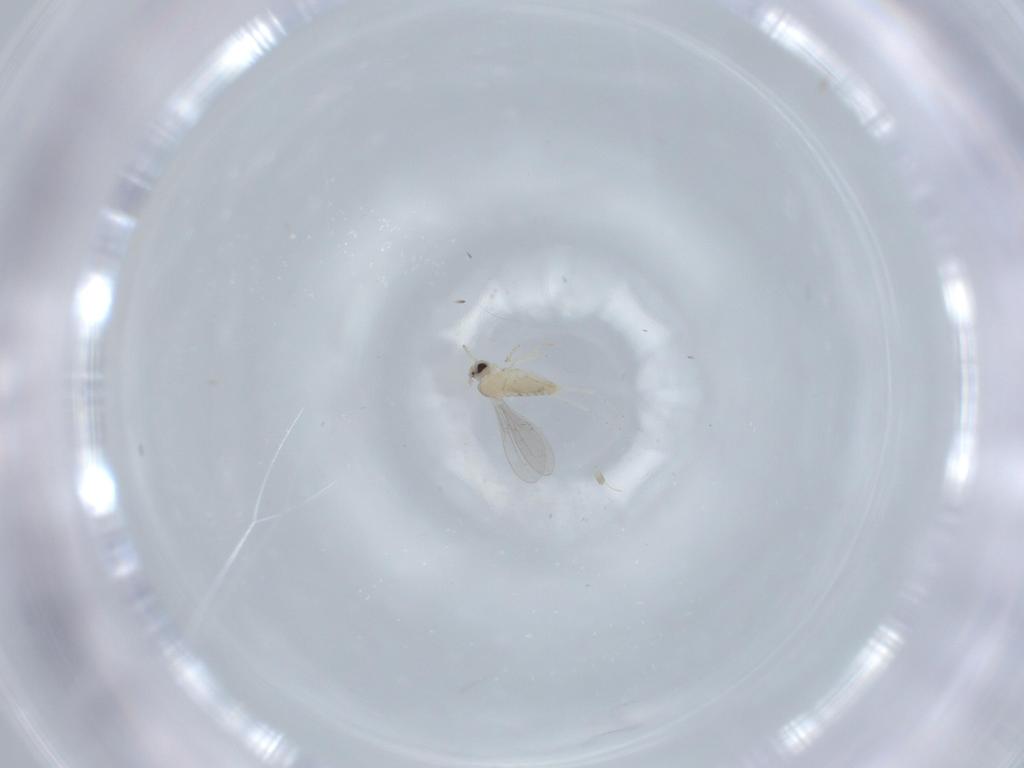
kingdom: Animalia
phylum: Arthropoda
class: Insecta
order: Diptera
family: Cecidomyiidae
